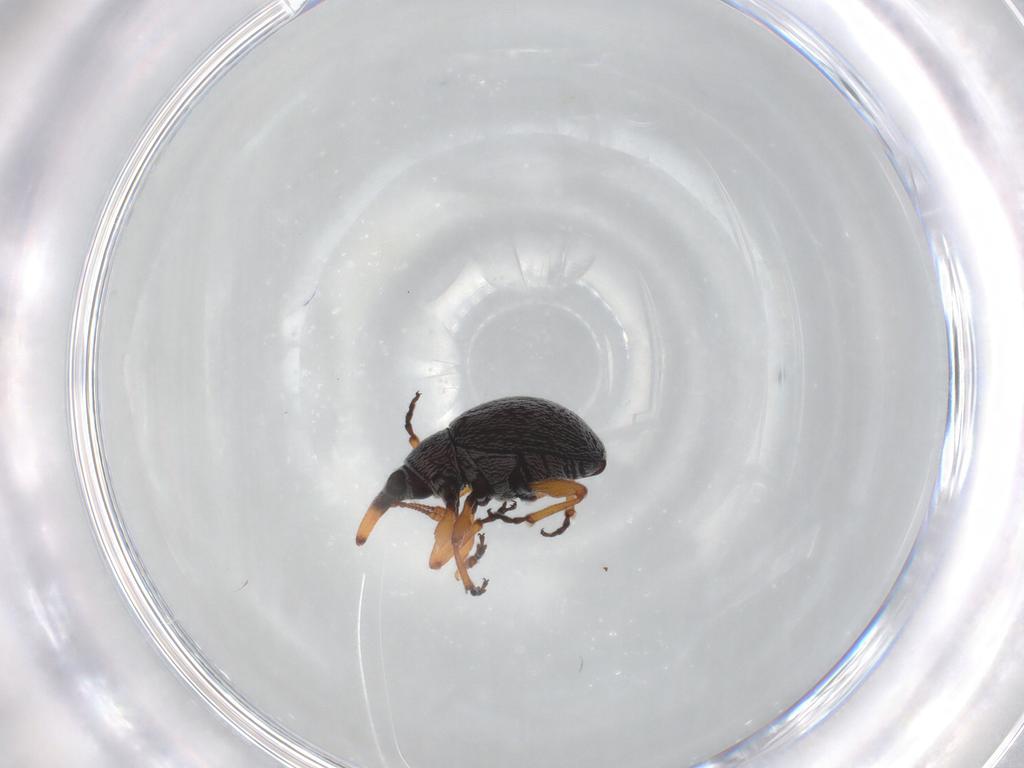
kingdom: Animalia
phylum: Arthropoda
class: Insecta
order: Coleoptera
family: Brentidae
